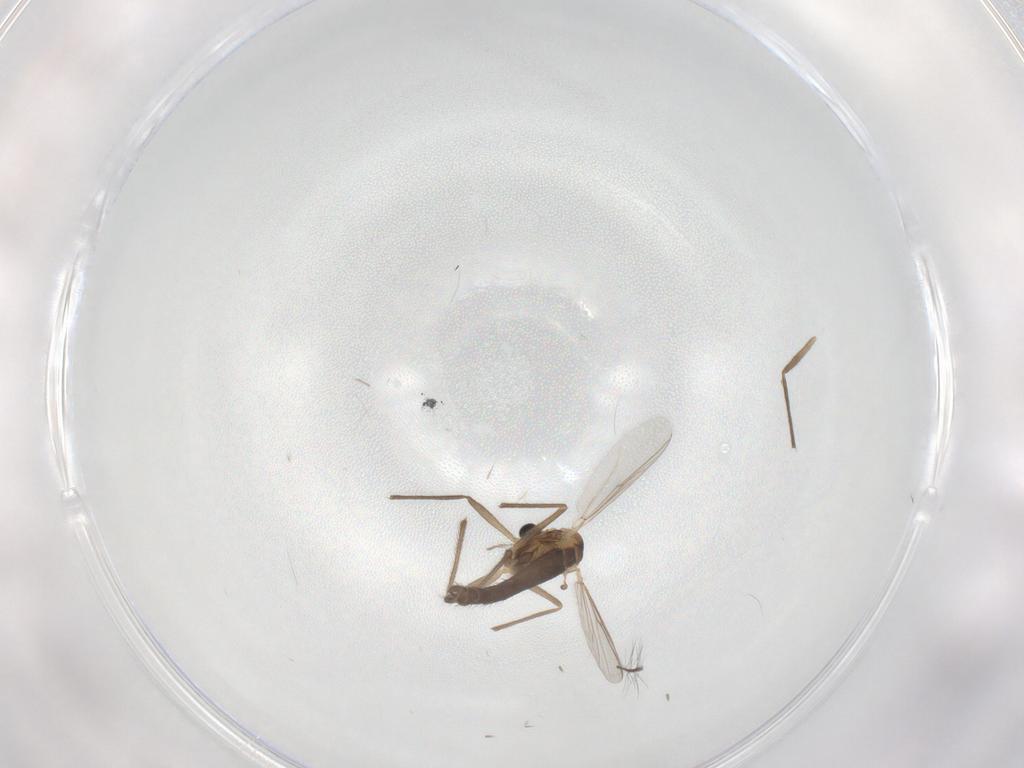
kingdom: Animalia
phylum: Arthropoda
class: Insecta
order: Diptera
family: Chironomidae
